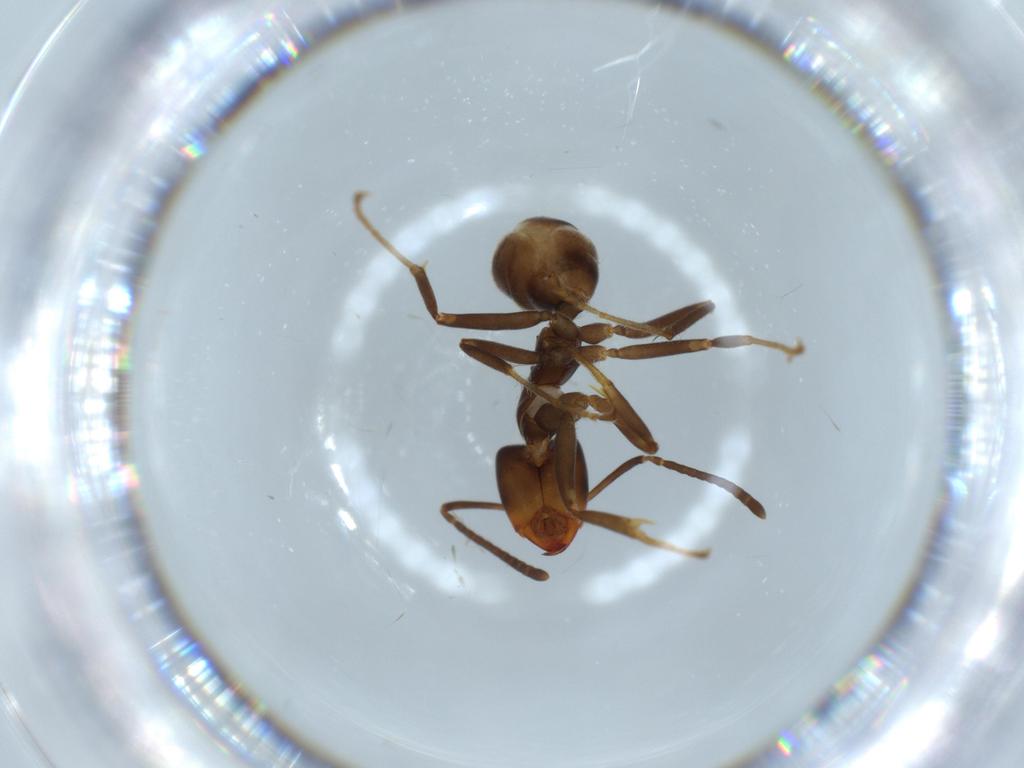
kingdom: Animalia
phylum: Arthropoda
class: Insecta
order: Hymenoptera
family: Formicidae
